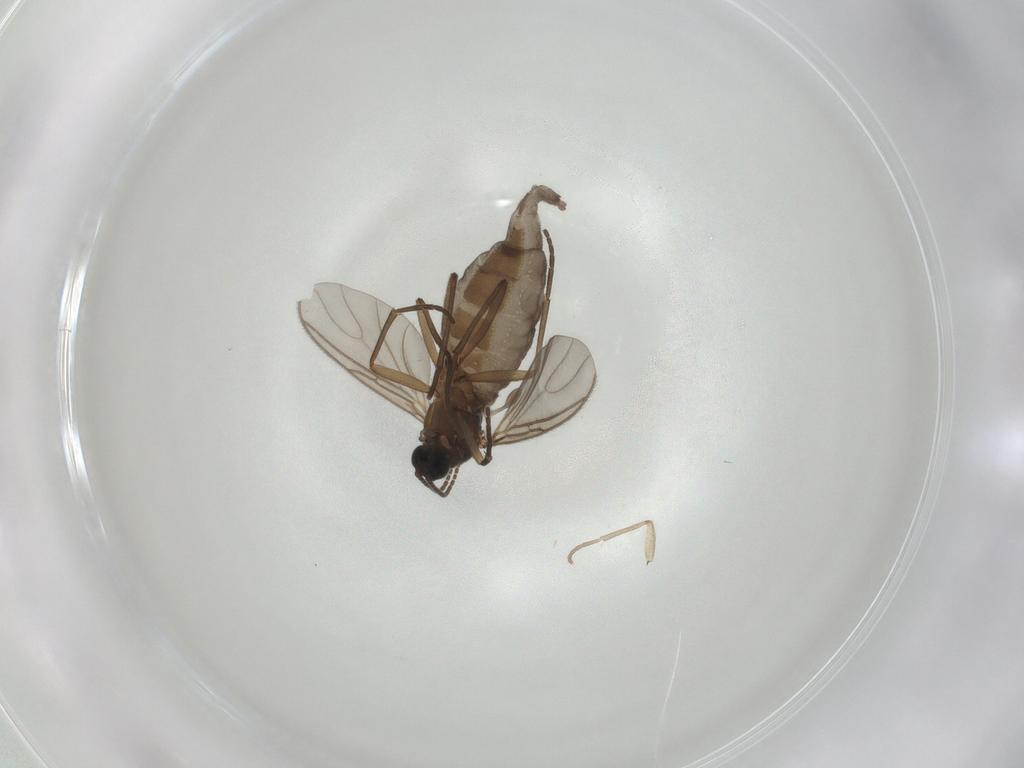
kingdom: Animalia
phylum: Arthropoda
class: Insecta
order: Diptera
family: Sciaridae
